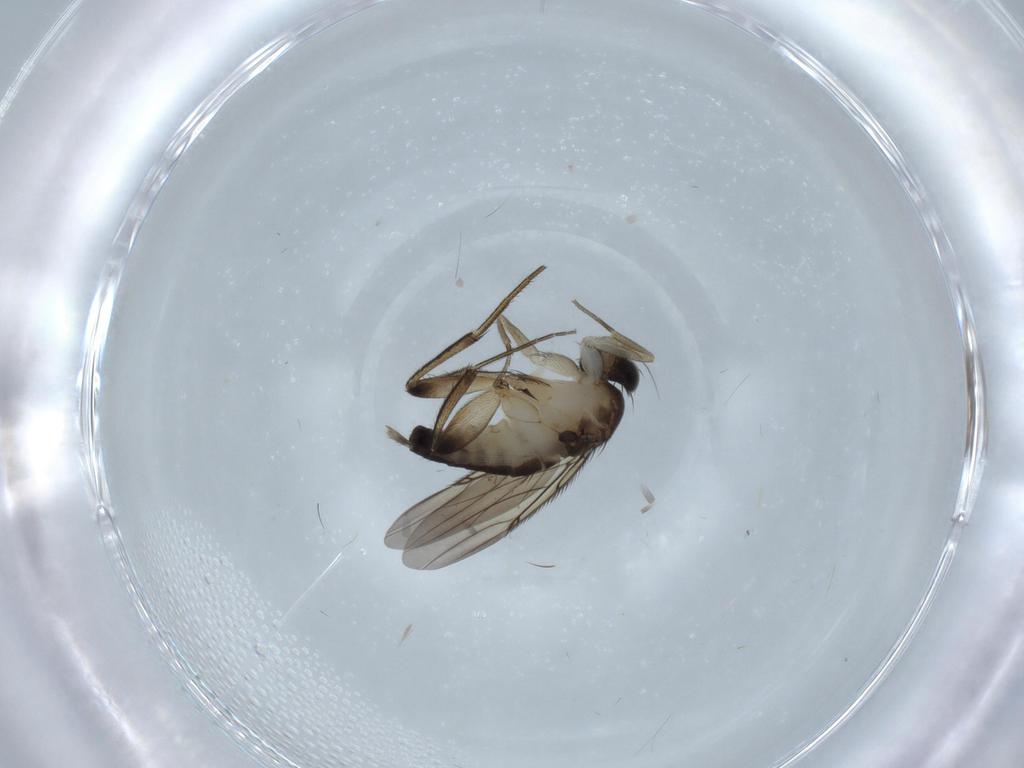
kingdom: Animalia
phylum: Arthropoda
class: Insecta
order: Diptera
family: Phoridae
